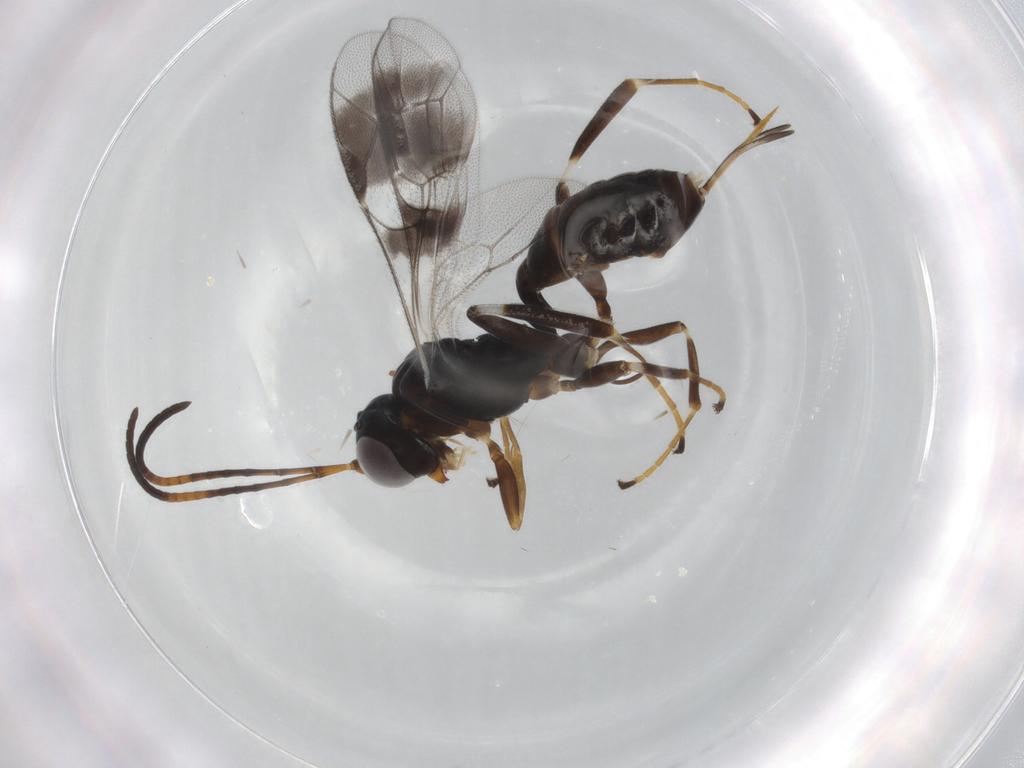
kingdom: Animalia
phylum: Arthropoda
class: Insecta
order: Hymenoptera
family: Ichneumonidae
